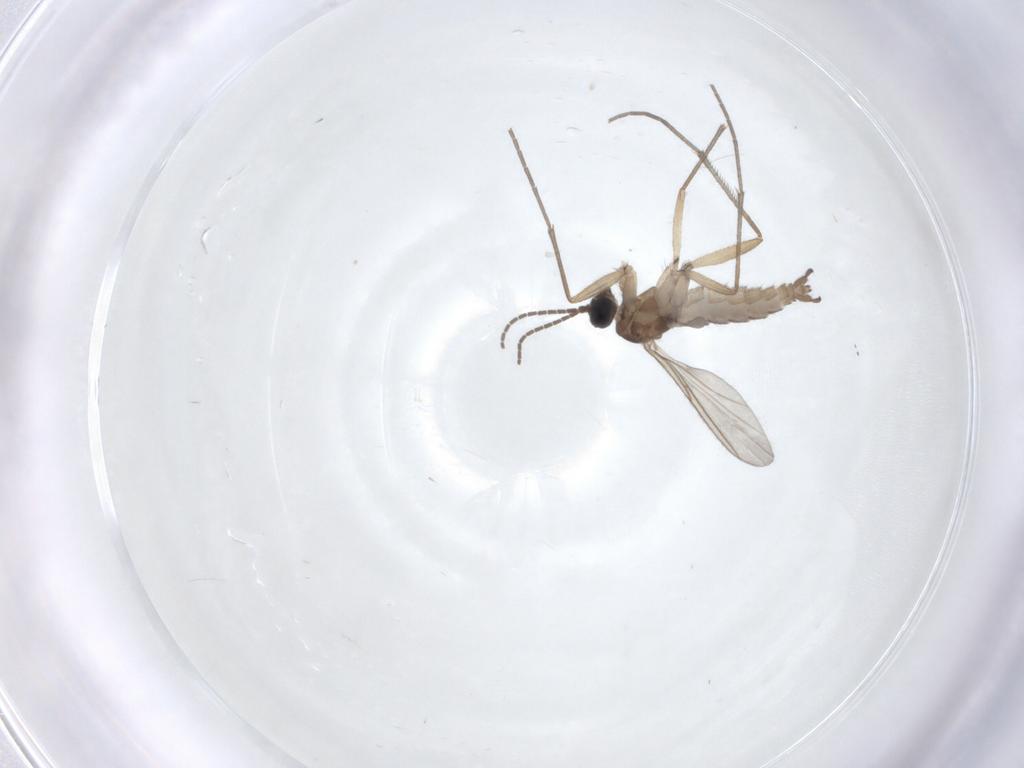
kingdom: Animalia
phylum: Arthropoda
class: Insecta
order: Diptera
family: Sciaridae
